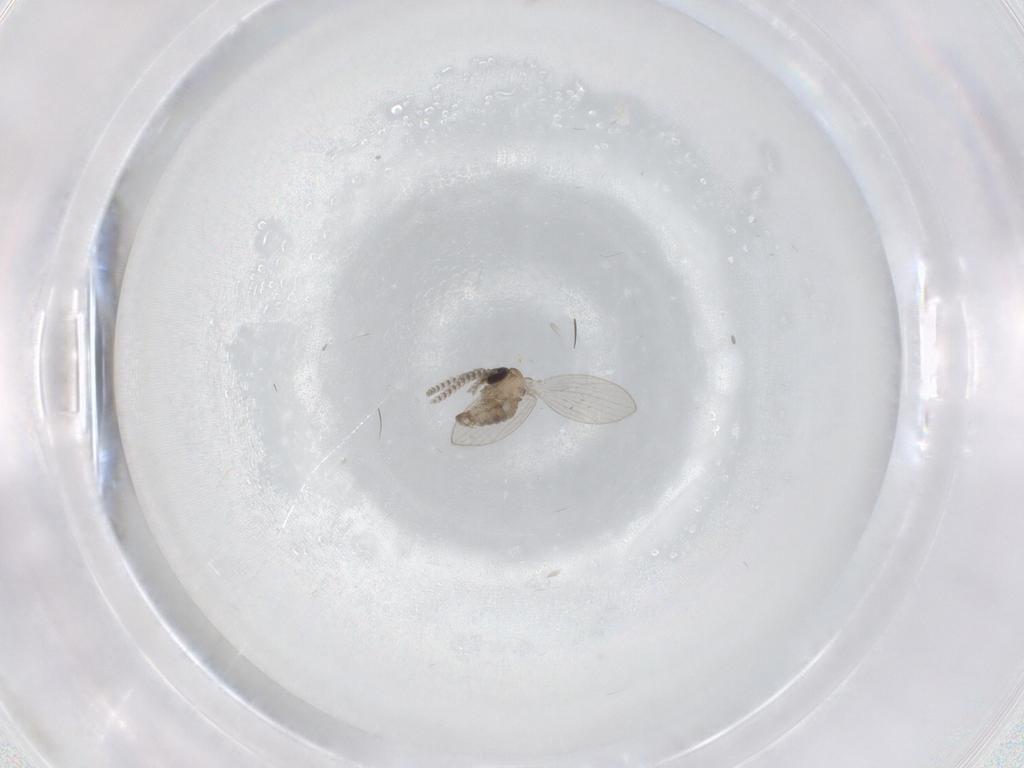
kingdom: Animalia
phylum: Arthropoda
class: Insecta
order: Diptera
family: Psychodidae
